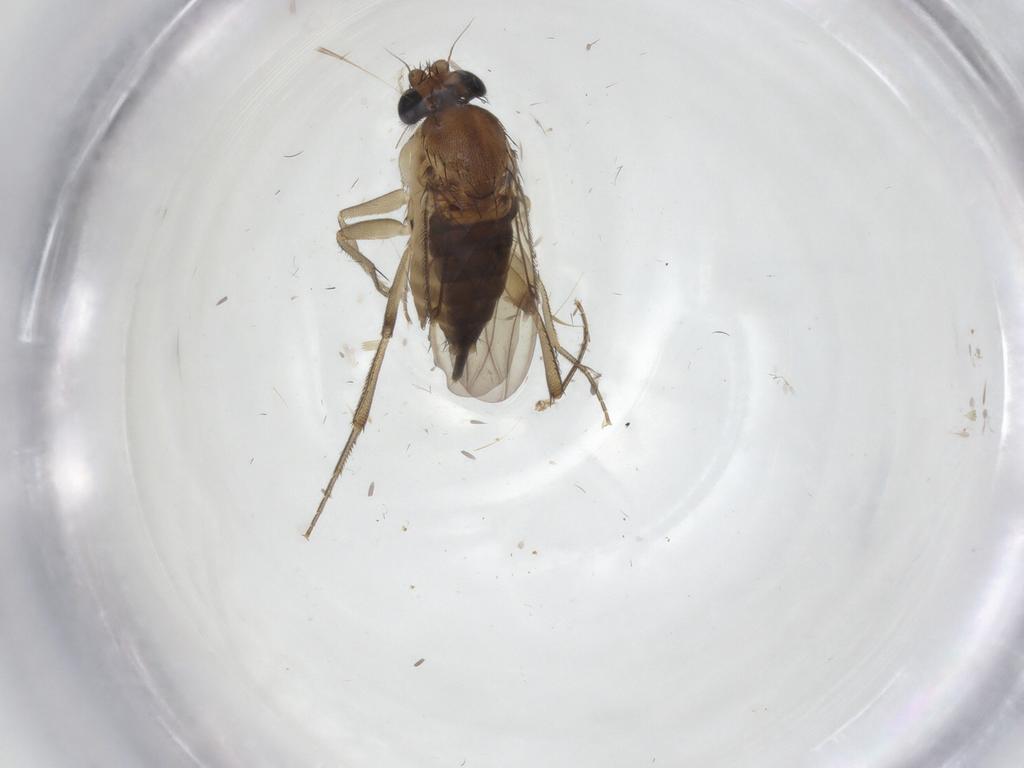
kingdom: Animalia
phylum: Arthropoda
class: Insecta
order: Diptera
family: Chironomidae
